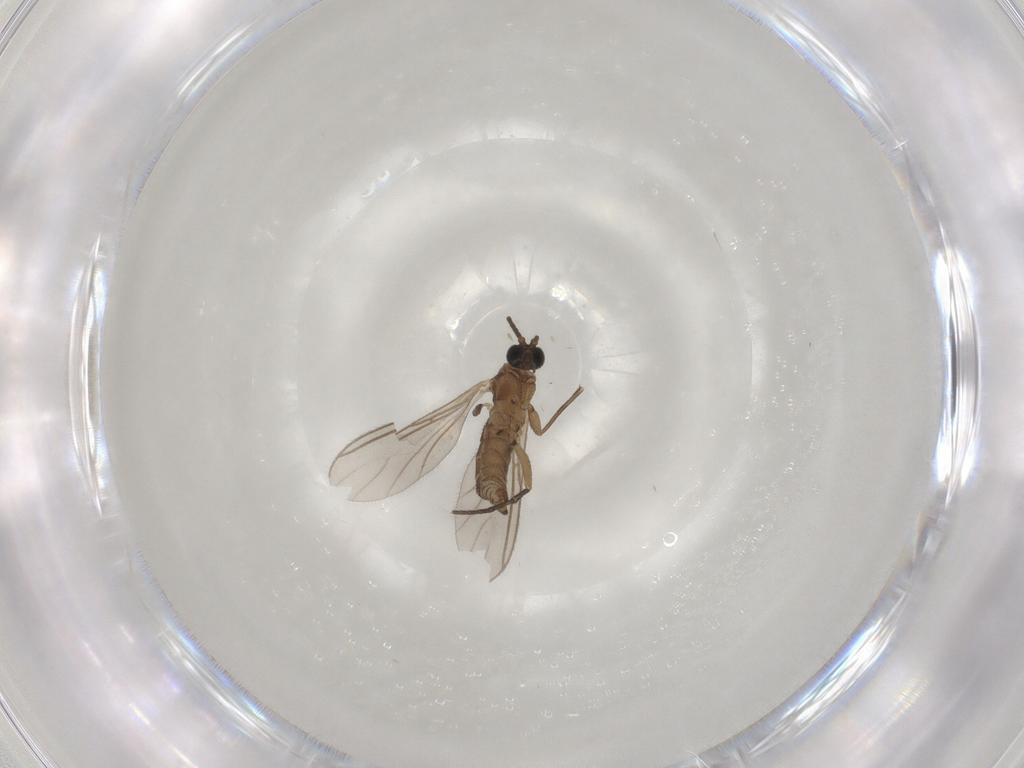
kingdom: Animalia
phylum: Arthropoda
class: Insecta
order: Diptera
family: Sciaridae
